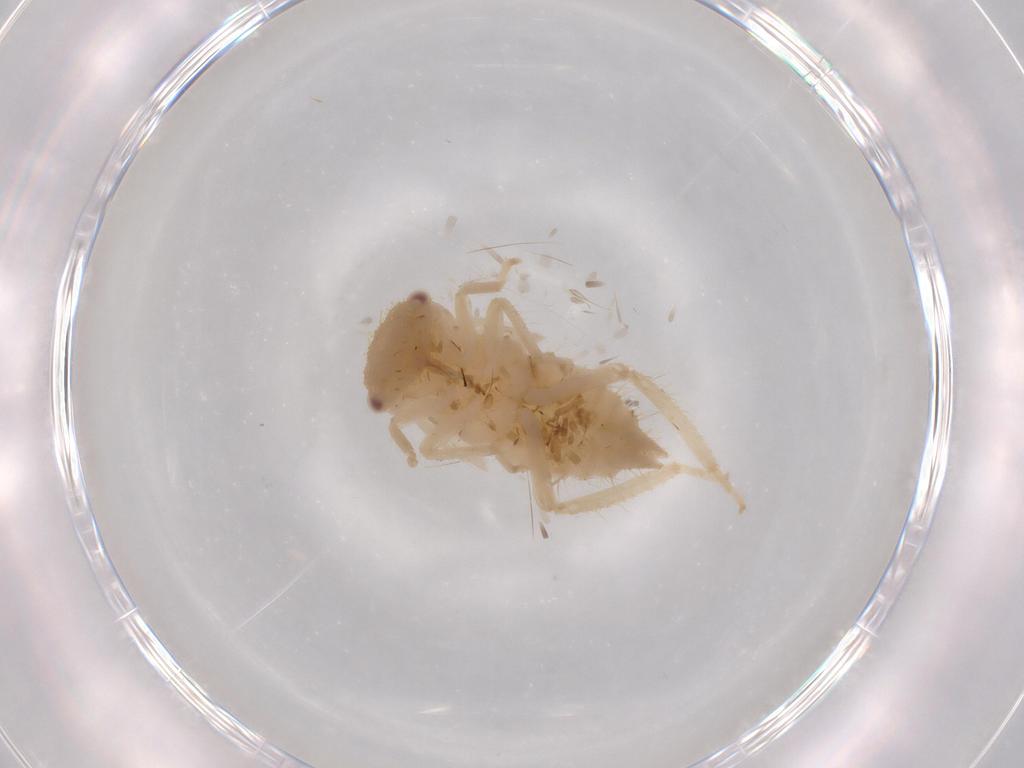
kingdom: Animalia
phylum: Arthropoda
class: Insecta
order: Hemiptera
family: Cicadellidae
